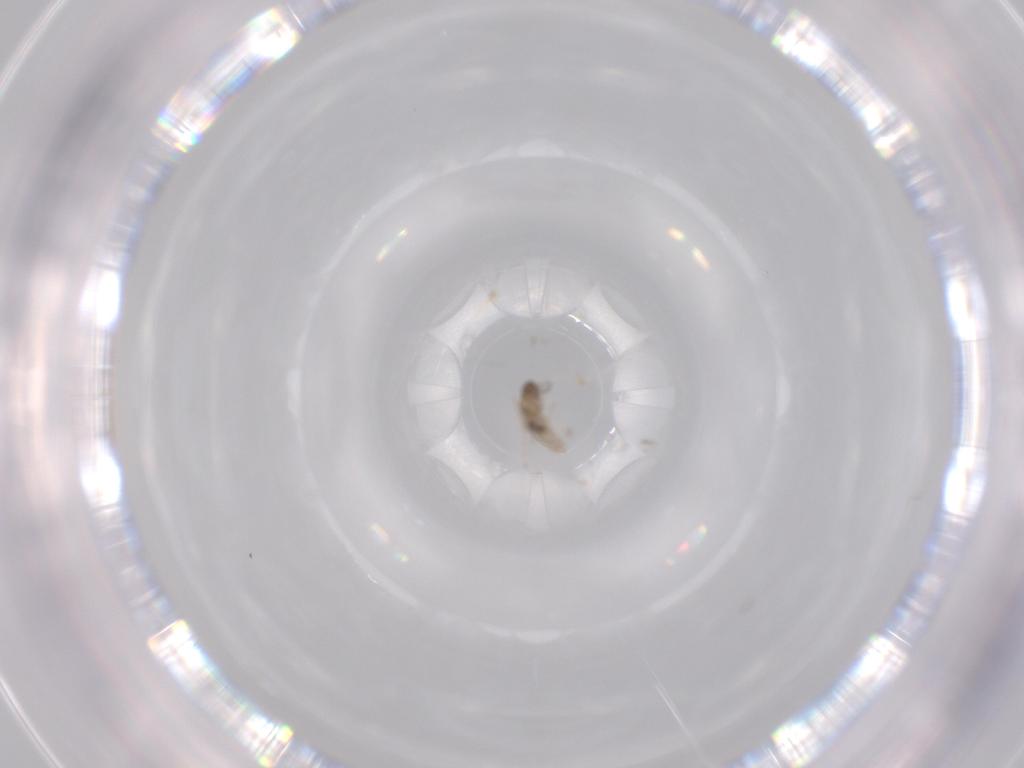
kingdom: Animalia
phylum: Arthropoda
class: Insecta
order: Diptera
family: Cecidomyiidae
